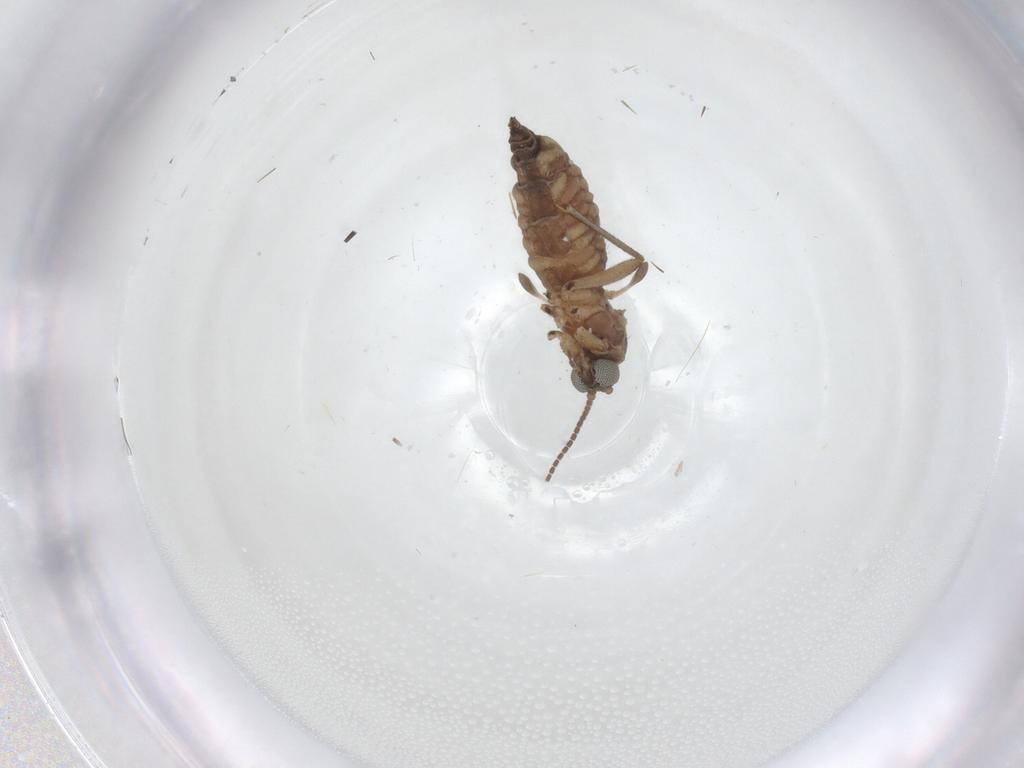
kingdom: Animalia
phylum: Arthropoda
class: Insecta
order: Diptera
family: Sciaridae
